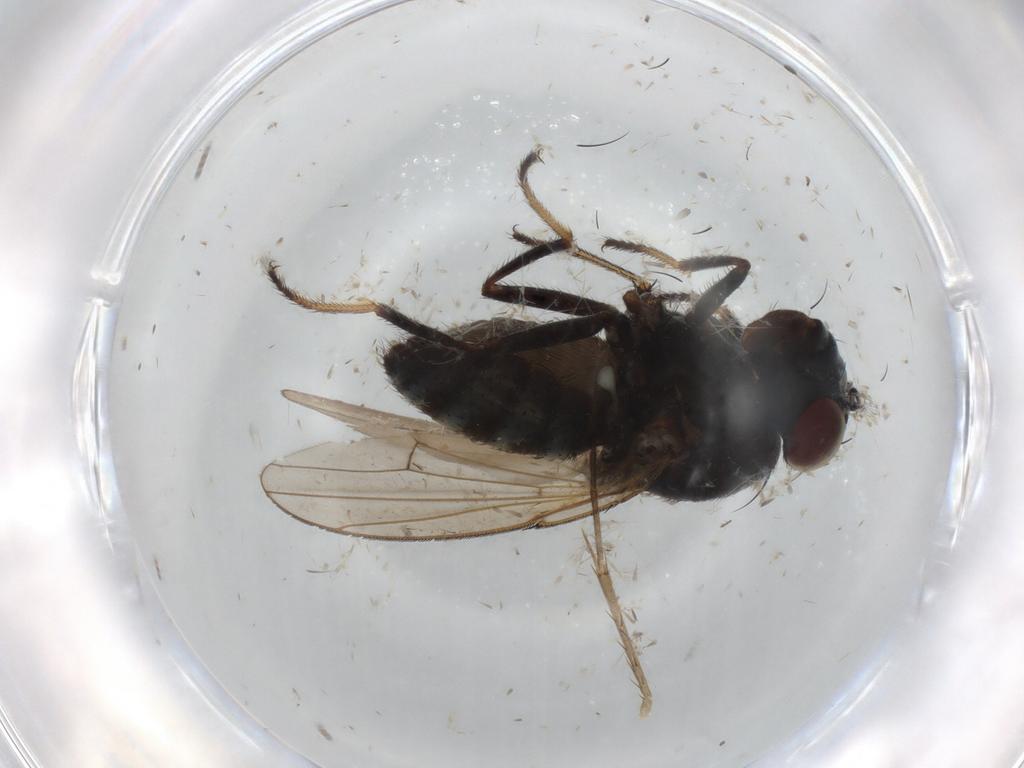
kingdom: Animalia
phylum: Arthropoda
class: Insecta
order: Diptera
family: Ephydridae
